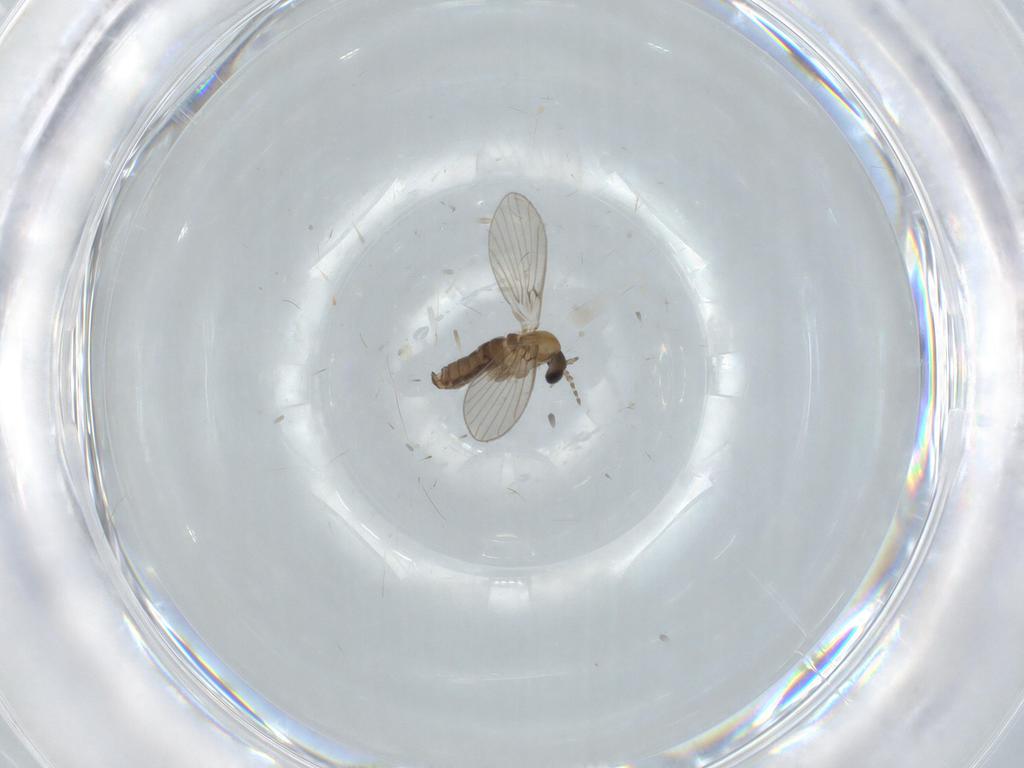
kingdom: Animalia
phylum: Arthropoda
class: Insecta
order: Diptera
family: Psychodidae
